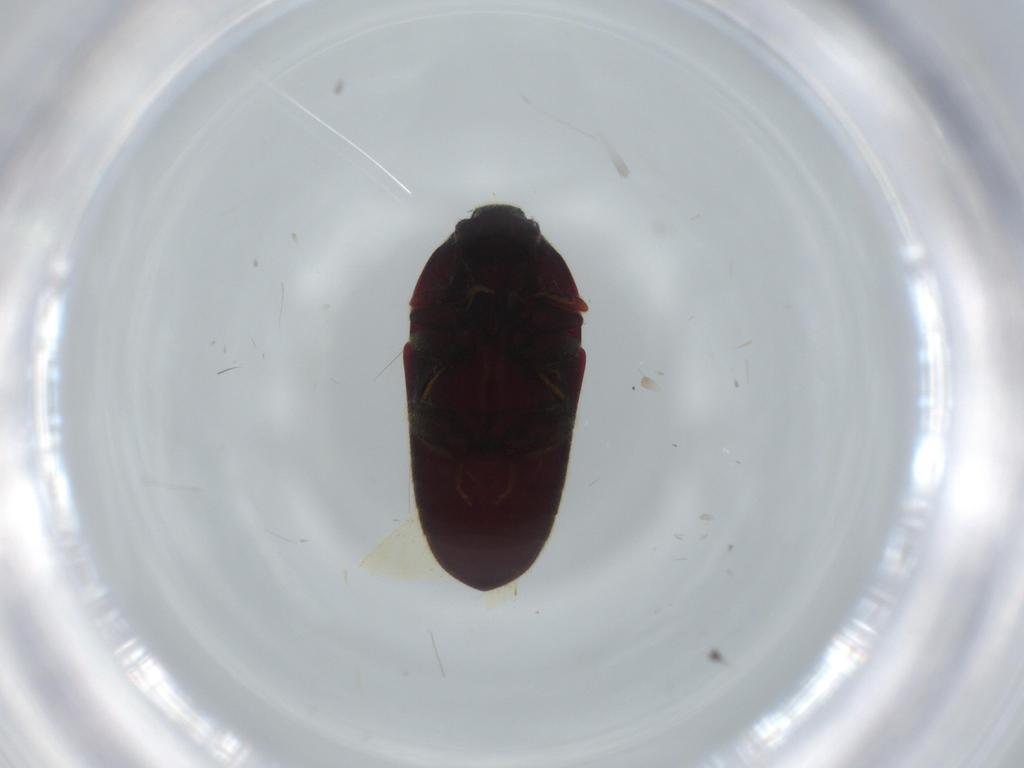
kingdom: Animalia
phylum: Arthropoda
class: Insecta
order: Coleoptera
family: Throscidae
